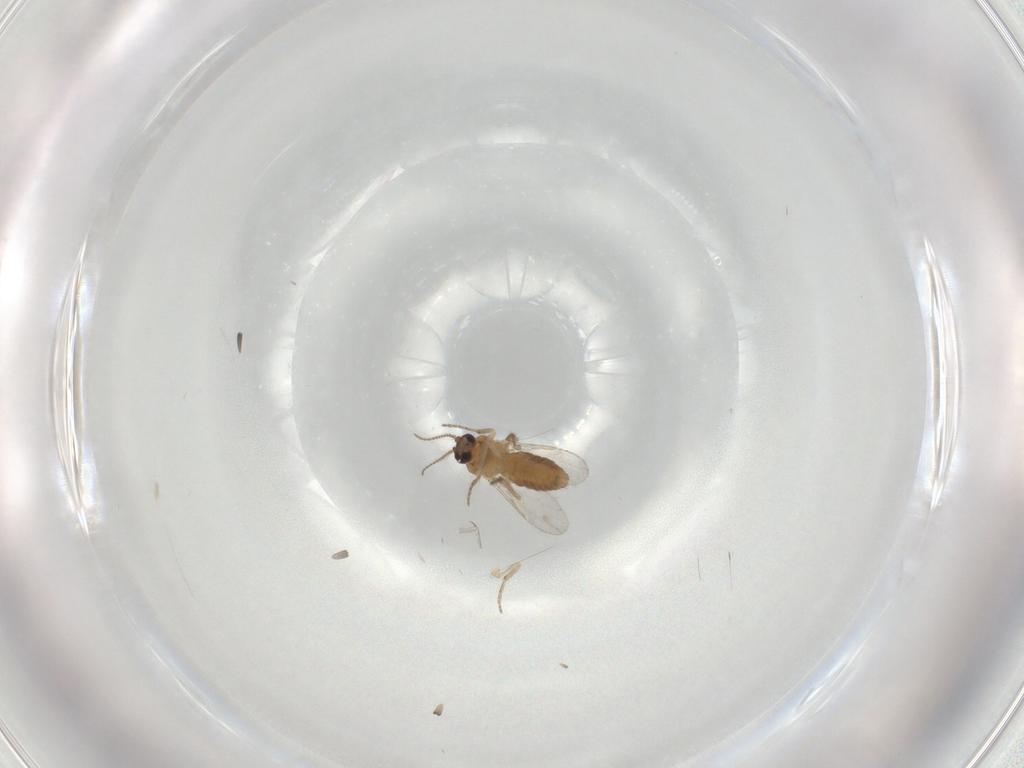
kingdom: Animalia
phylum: Arthropoda
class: Insecta
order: Diptera
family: Ceratopogonidae
